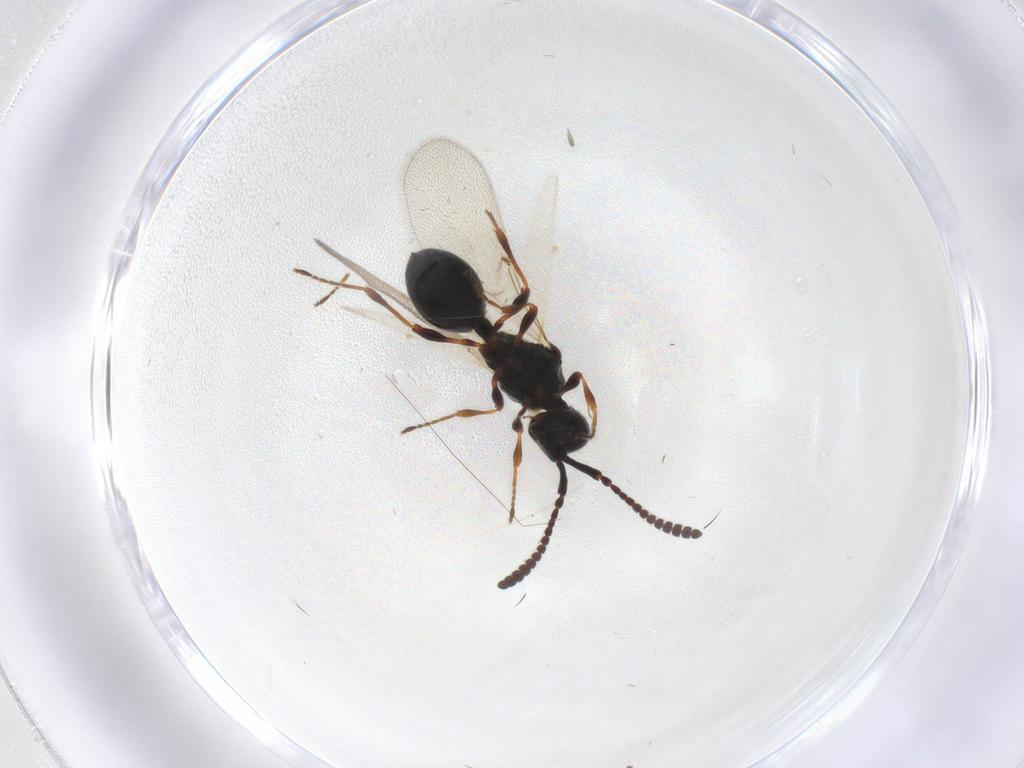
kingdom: Animalia
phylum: Arthropoda
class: Insecta
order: Hymenoptera
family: Diapriidae
